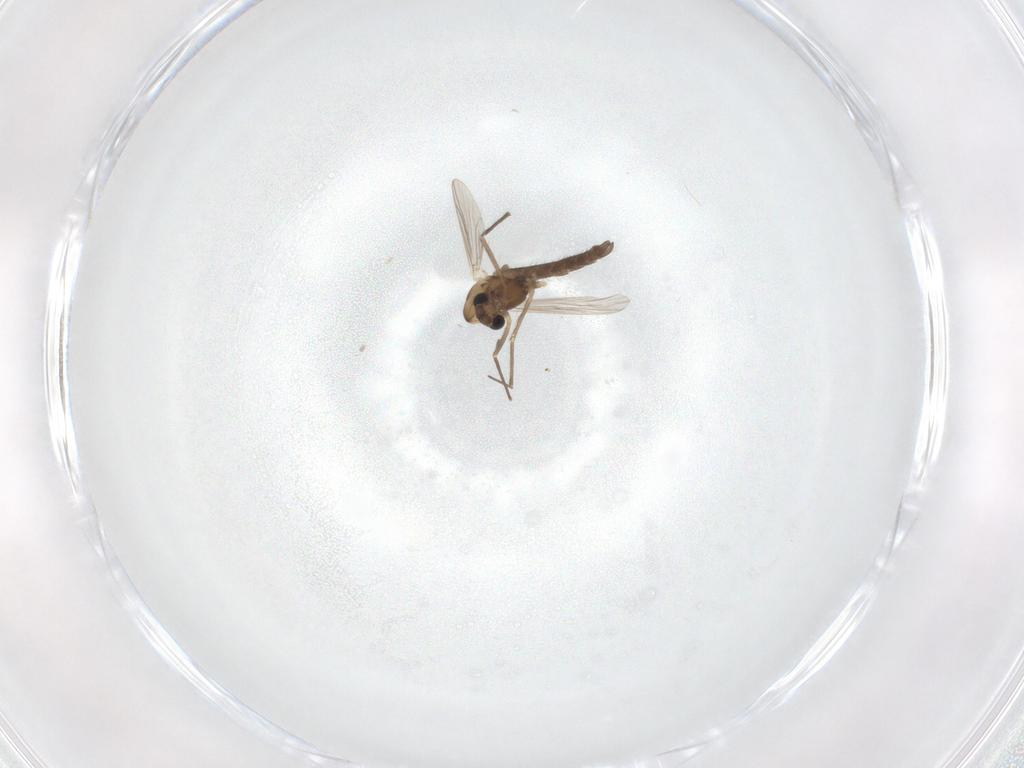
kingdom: Animalia
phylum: Arthropoda
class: Insecta
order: Diptera
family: Chironomidae
